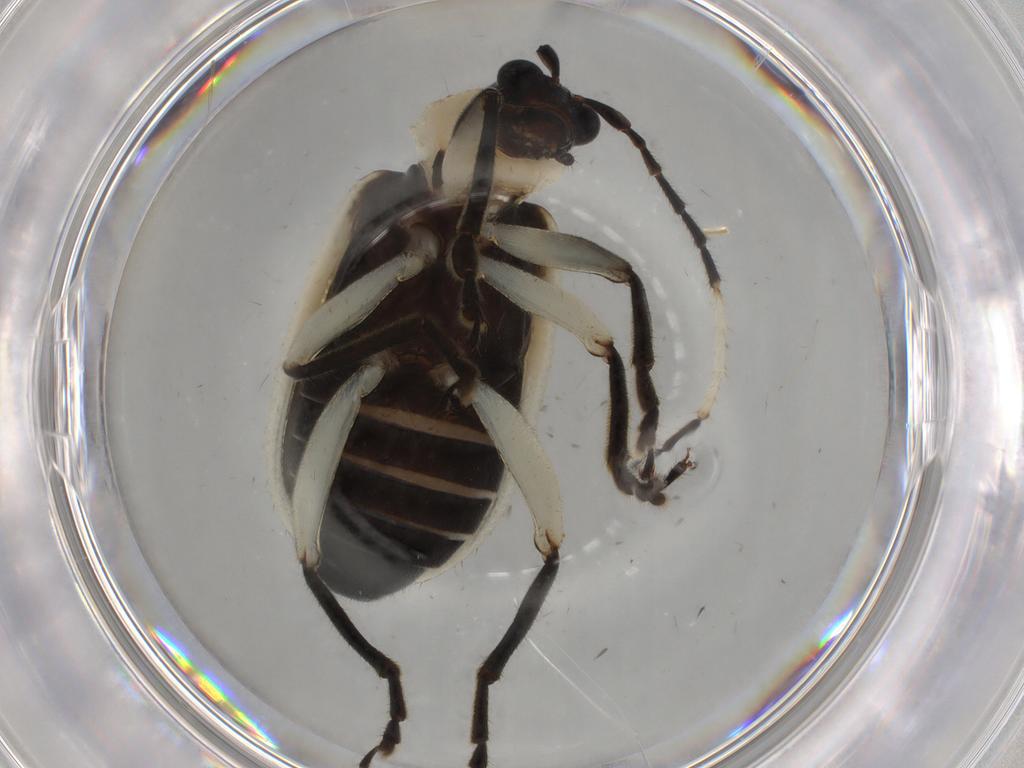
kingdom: Animalia
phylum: Arthropoda
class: Insecta
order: Coleoptera
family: Chrysomelidae
